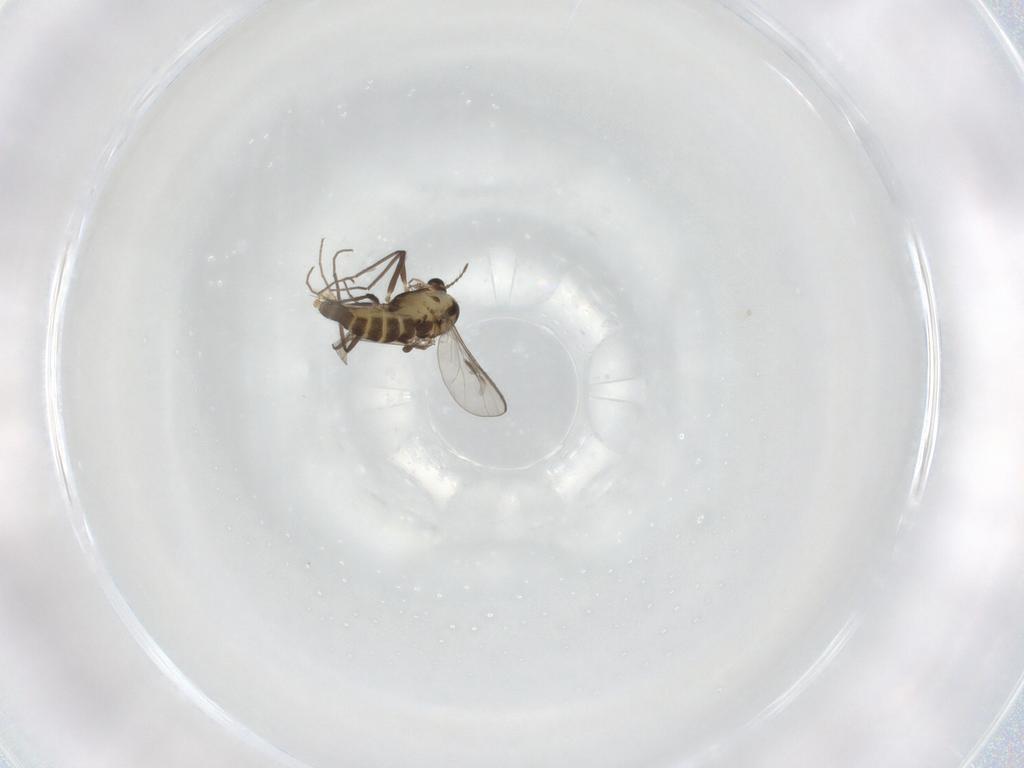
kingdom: Animalia
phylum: Arthropoda
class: Insecta
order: Diptera
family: Chironomidae
